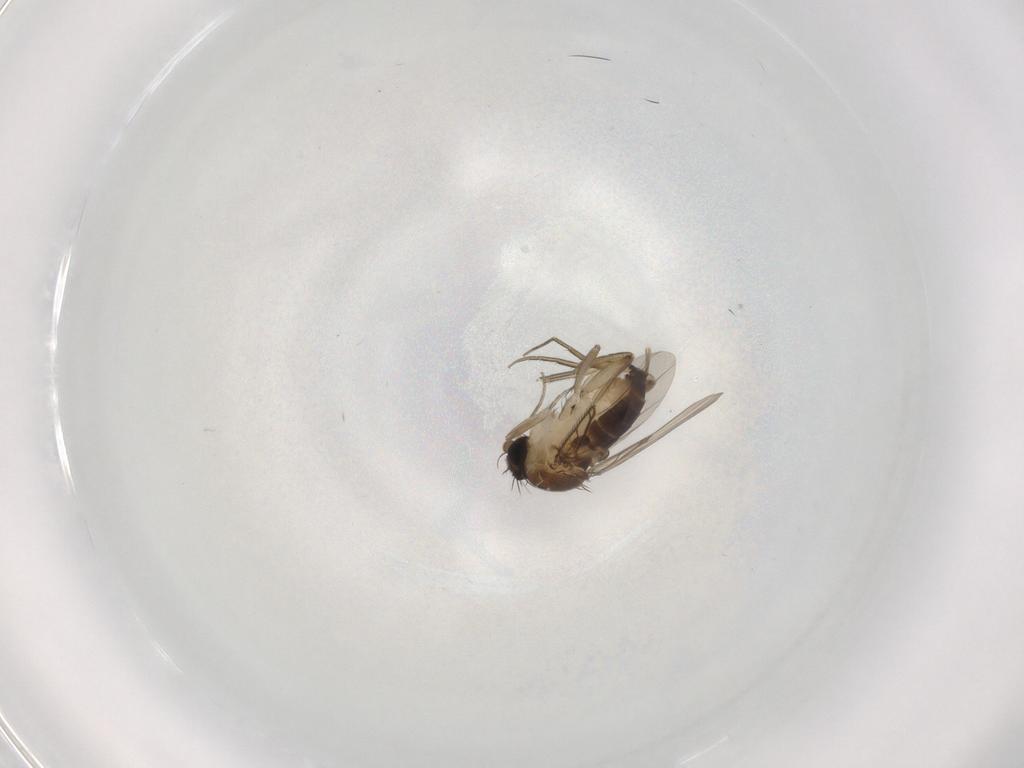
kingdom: Animalia
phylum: Arthropoda
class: Insecta
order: Diptera
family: Phoridae
